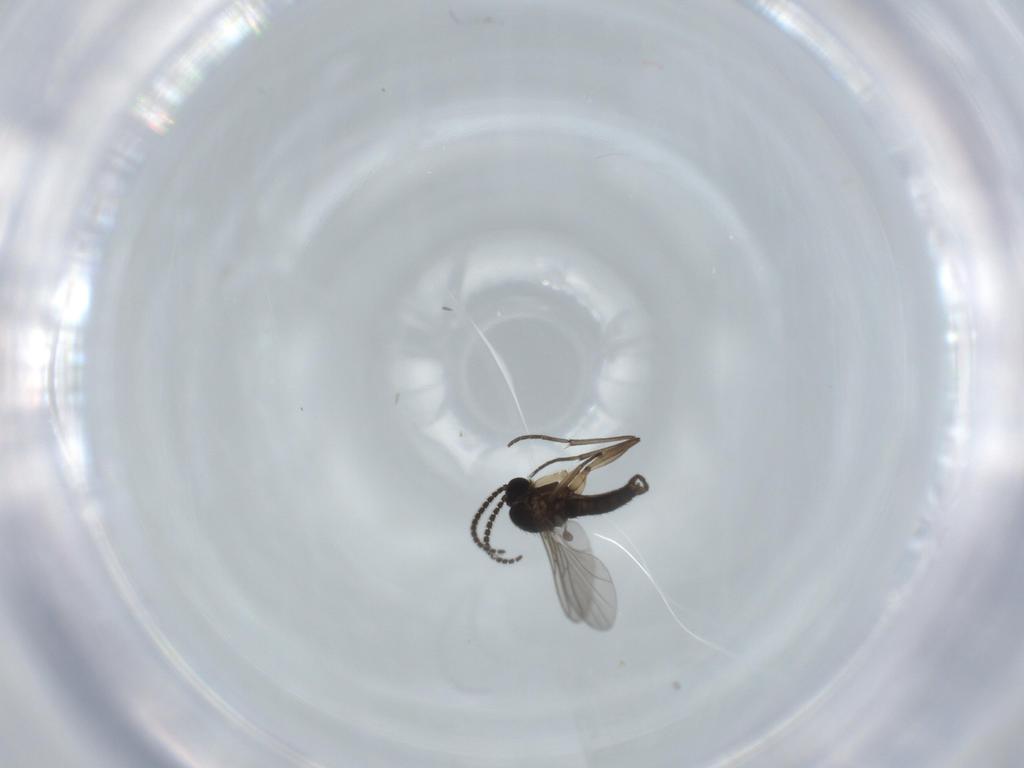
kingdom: Animalia
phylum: Arthropoda
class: Insecta
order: Diptera
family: Sciaridae
